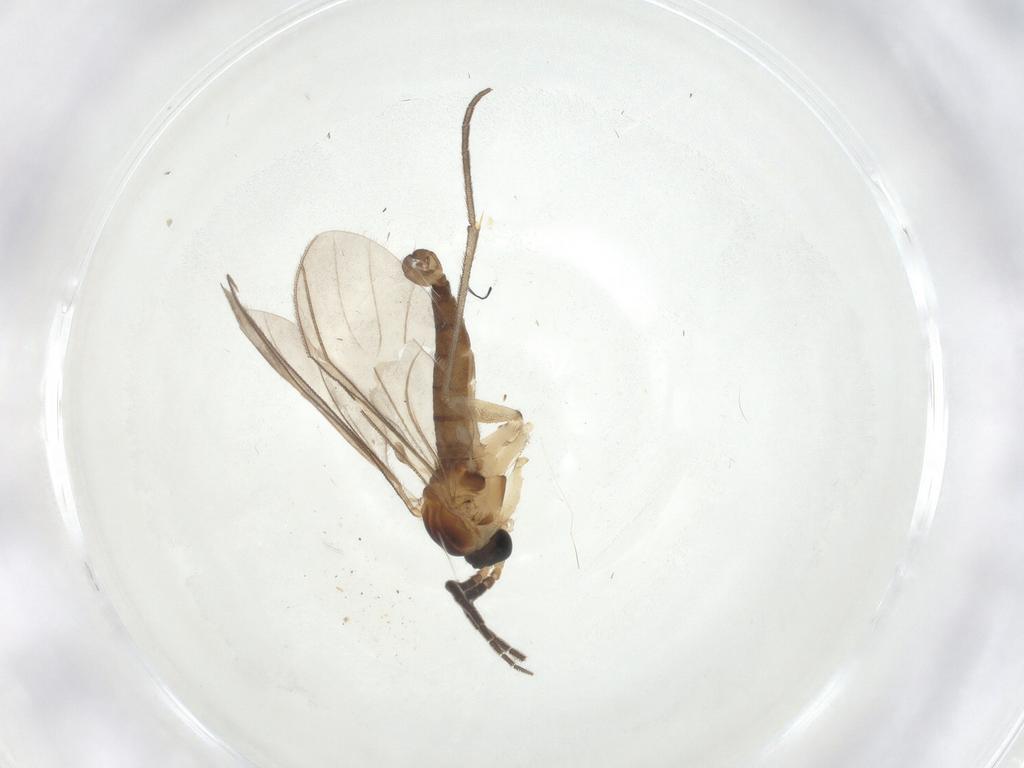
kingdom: Animalia
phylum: Arthropoda
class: Insecta
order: Diptera
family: Sciaridae
